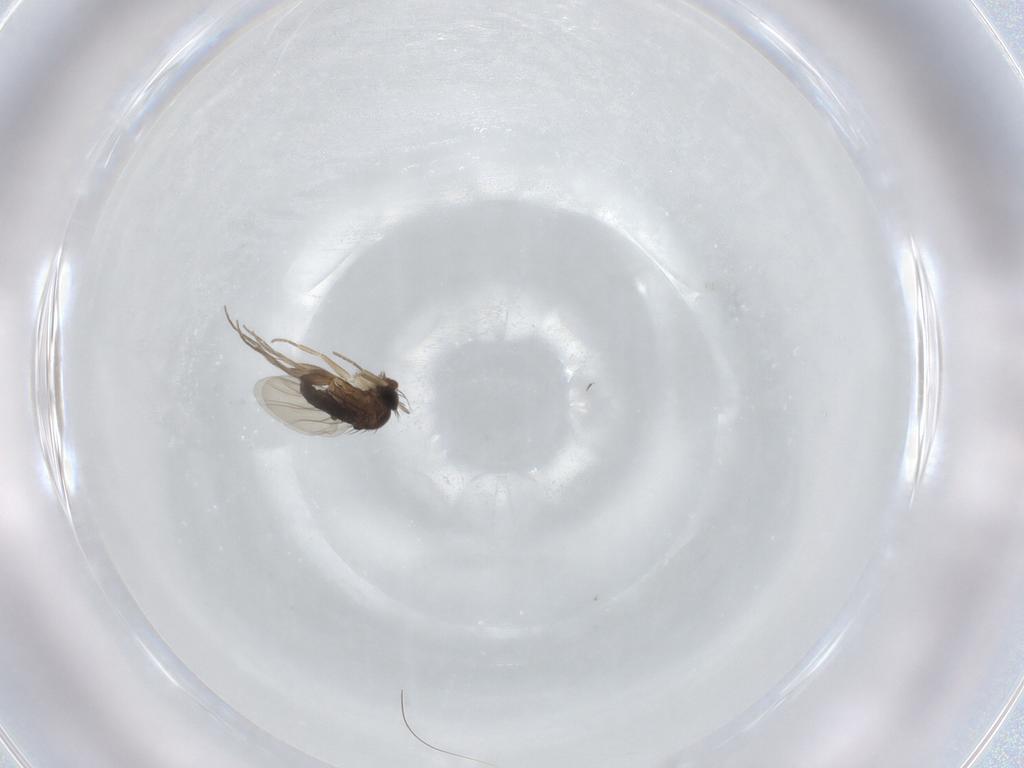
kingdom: Animalia
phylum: Arthropoda
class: Insecta
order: Diptera
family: Phoridae
